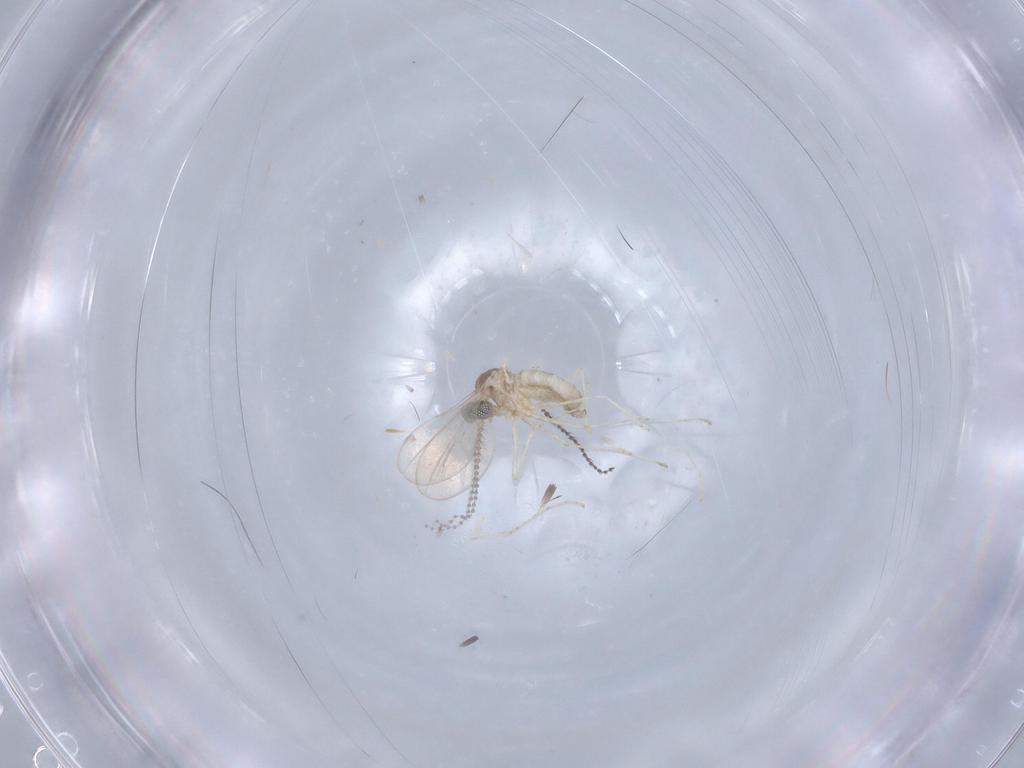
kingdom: Animalia
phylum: Arthropoda
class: Insecta
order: Diptera
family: Cecidomyiidae
